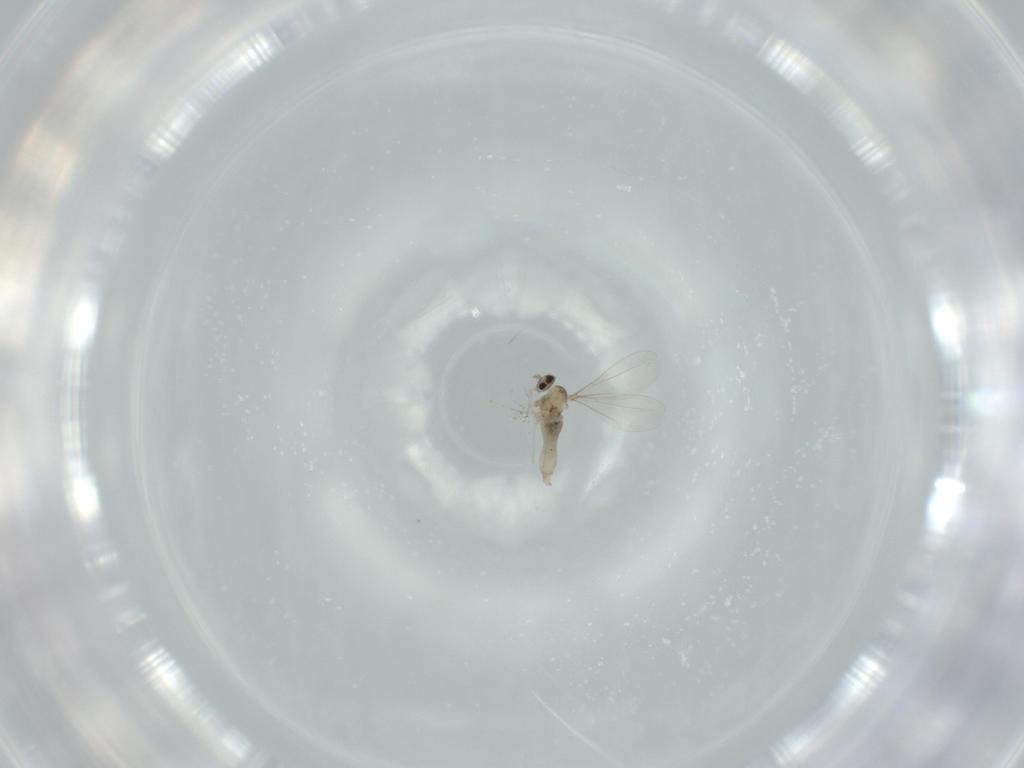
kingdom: Animalia
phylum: Arthropoda
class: Insecta
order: Diptera
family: Cecidomyiidae
